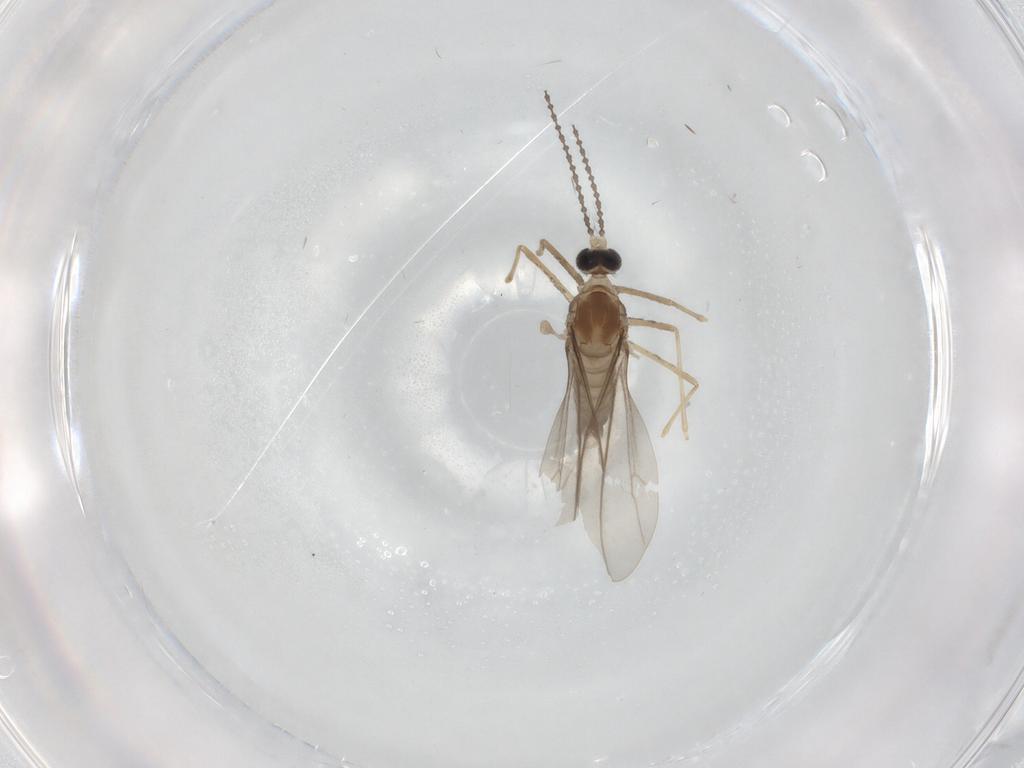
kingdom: Animalia
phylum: Arthropoda
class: Insecta
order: Diptera
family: Cecidomyiidae
